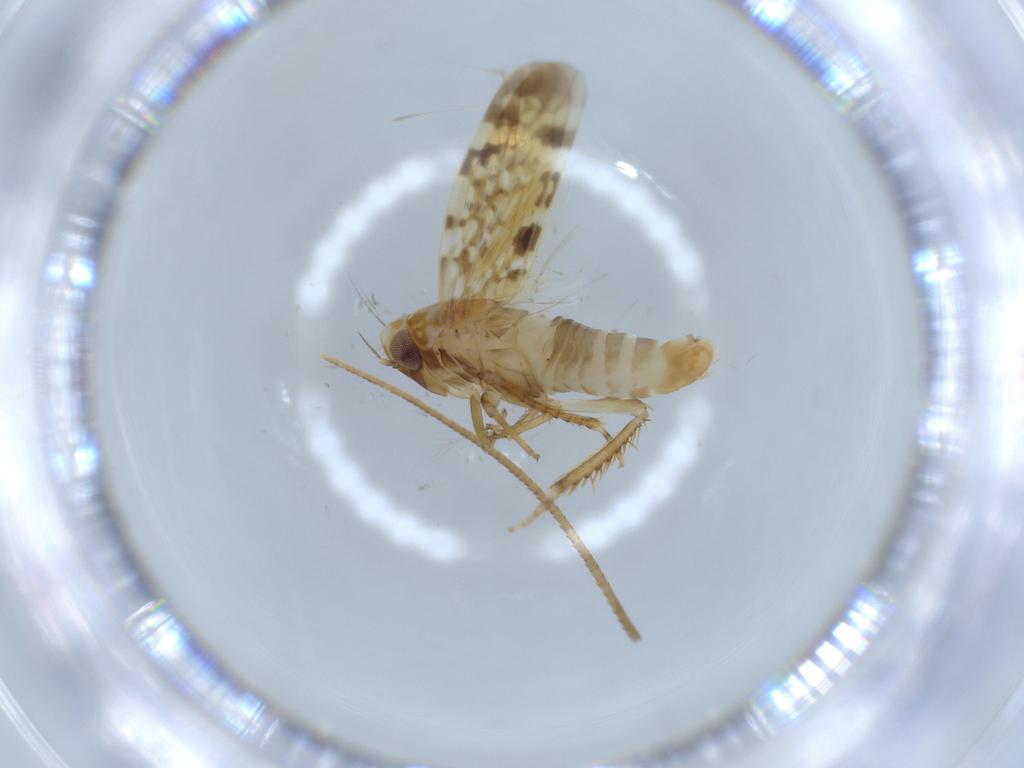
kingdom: Animalia
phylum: Arthropoda
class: Insecta
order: Hemiptera
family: Cicadellidae
